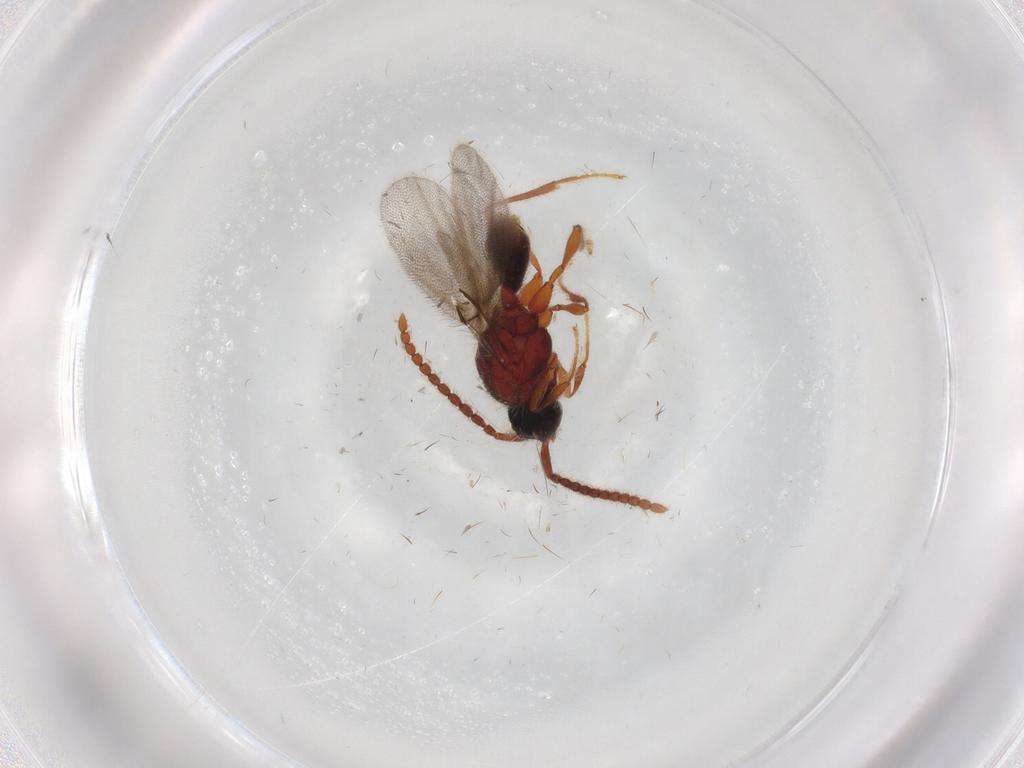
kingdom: Animalia
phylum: Arthropoda
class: Insecta
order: Hymenoptera
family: Diapriidae
